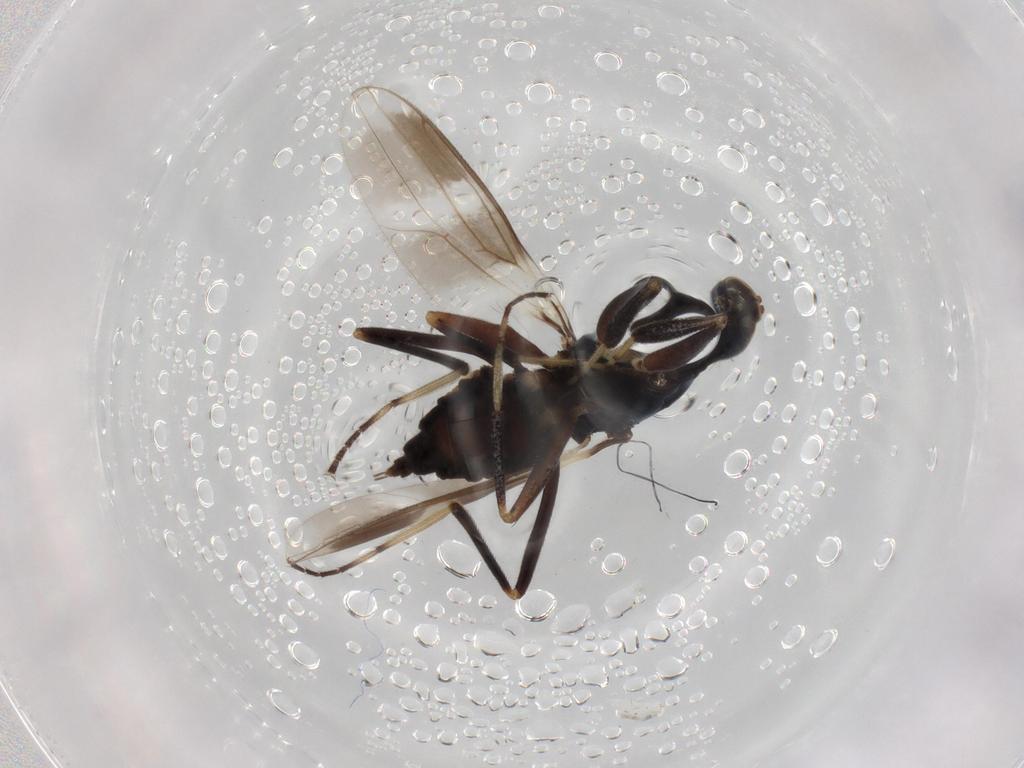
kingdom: Animalia
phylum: Arthropoda
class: Insecta
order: Diptera
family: Hybotidae
